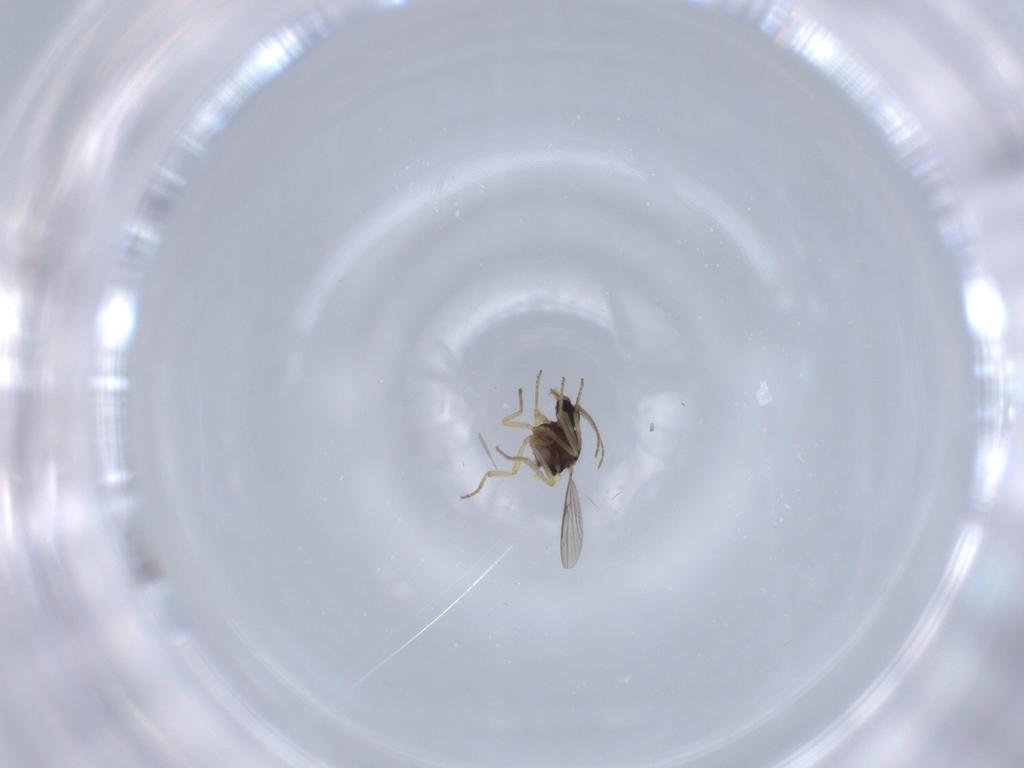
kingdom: Animalia
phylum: Arthropoda
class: Insecta
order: Diptera
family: Ceratopogonidae
